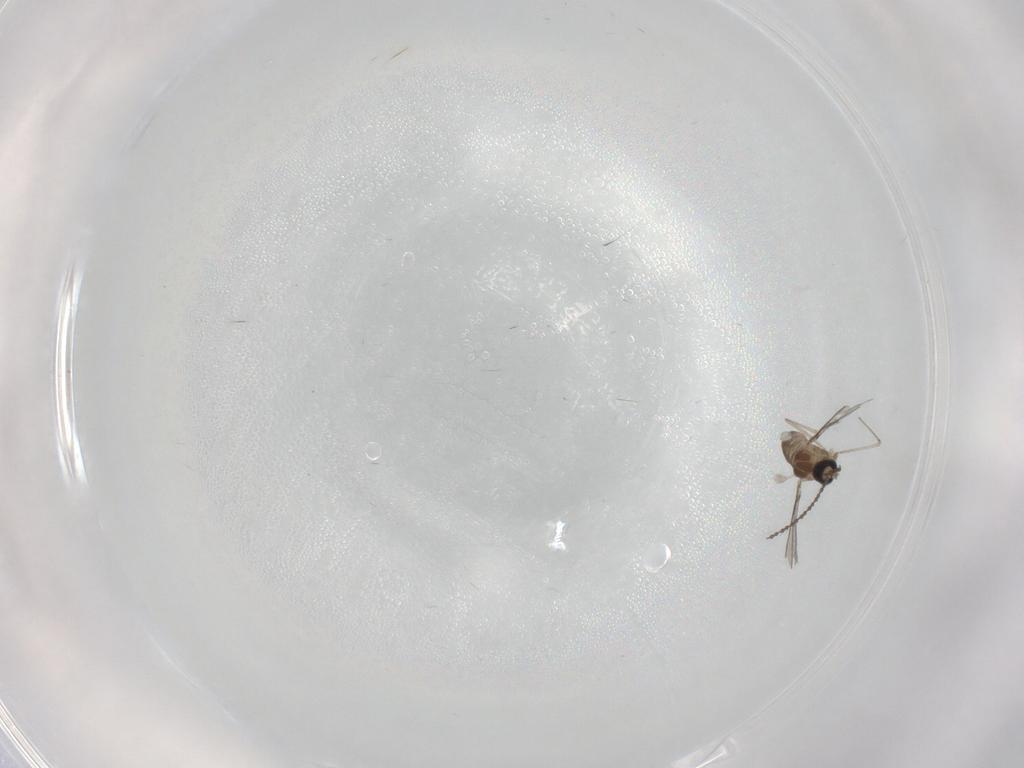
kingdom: Animalia
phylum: Arthropoda
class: Insecta
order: Diptera
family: Cecidomyiidae
